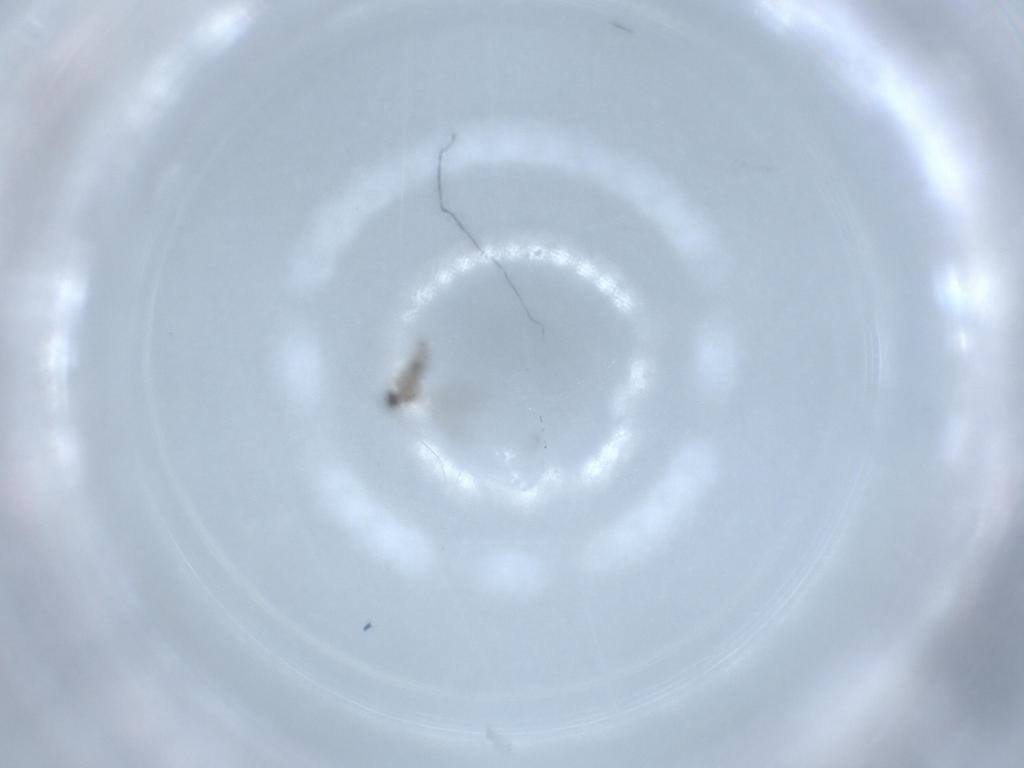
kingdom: Animalia
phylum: Arthropoda
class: Insecta
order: Diptera
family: Cecidomyiidae
